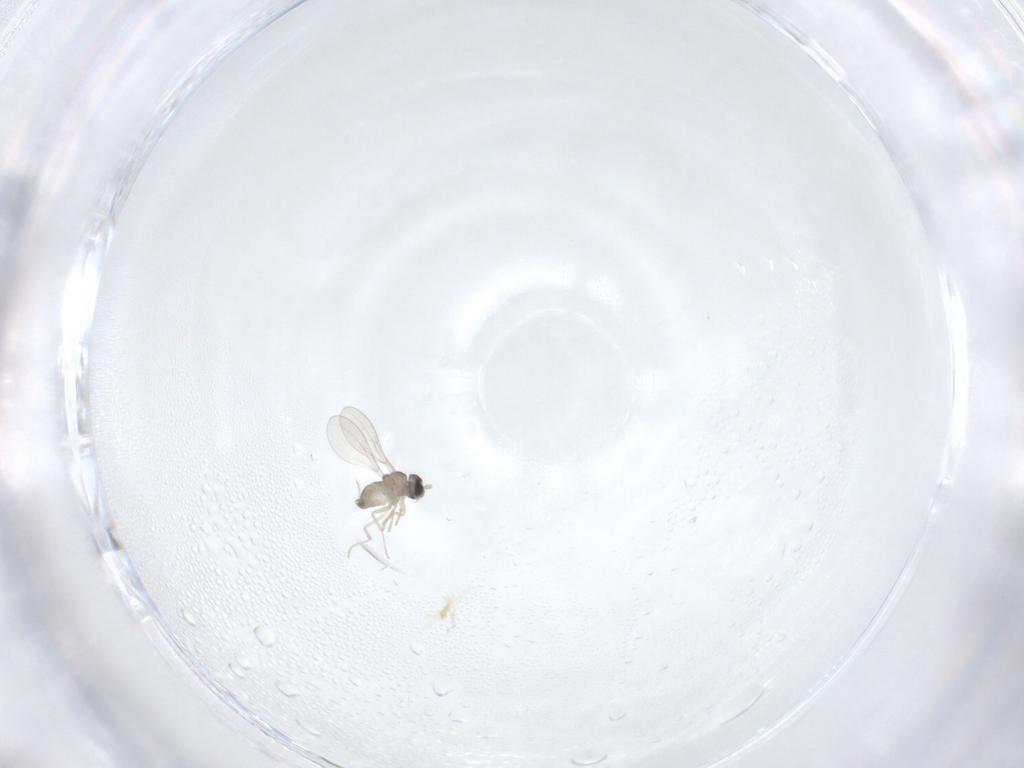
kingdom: Animalia
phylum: Arthropoda
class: Insecta
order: Diptera
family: Cecidomyiidae
